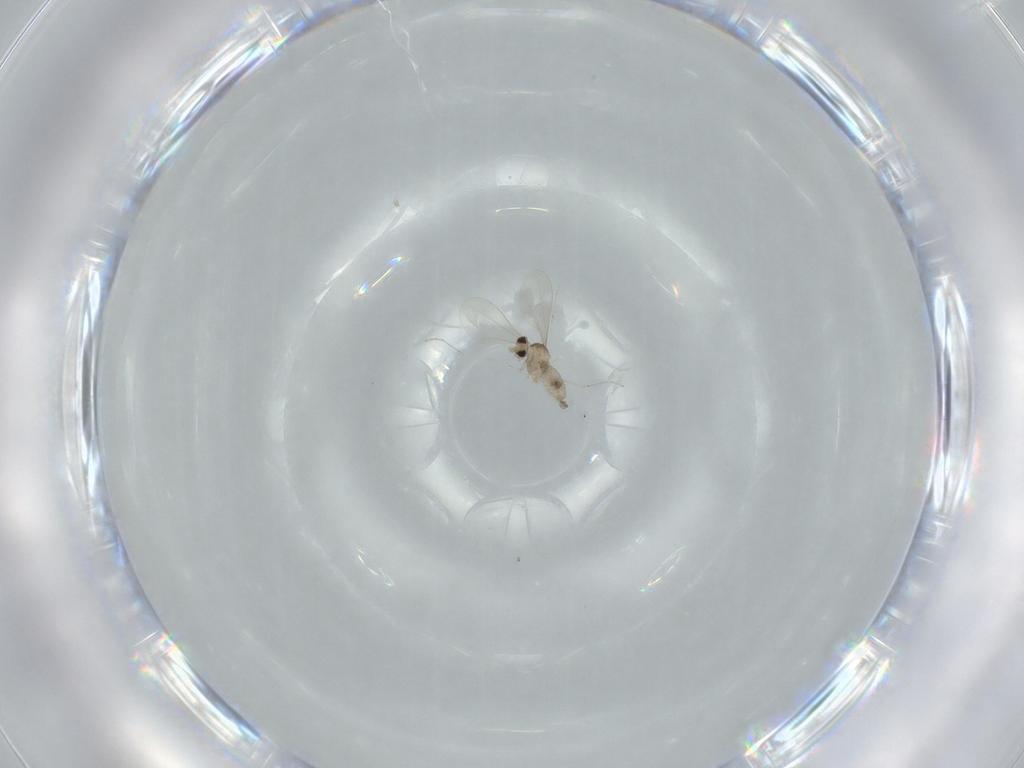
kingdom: Animalia
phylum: Arthropoda
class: Insecta
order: Diptera
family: Cecidomyiidae
